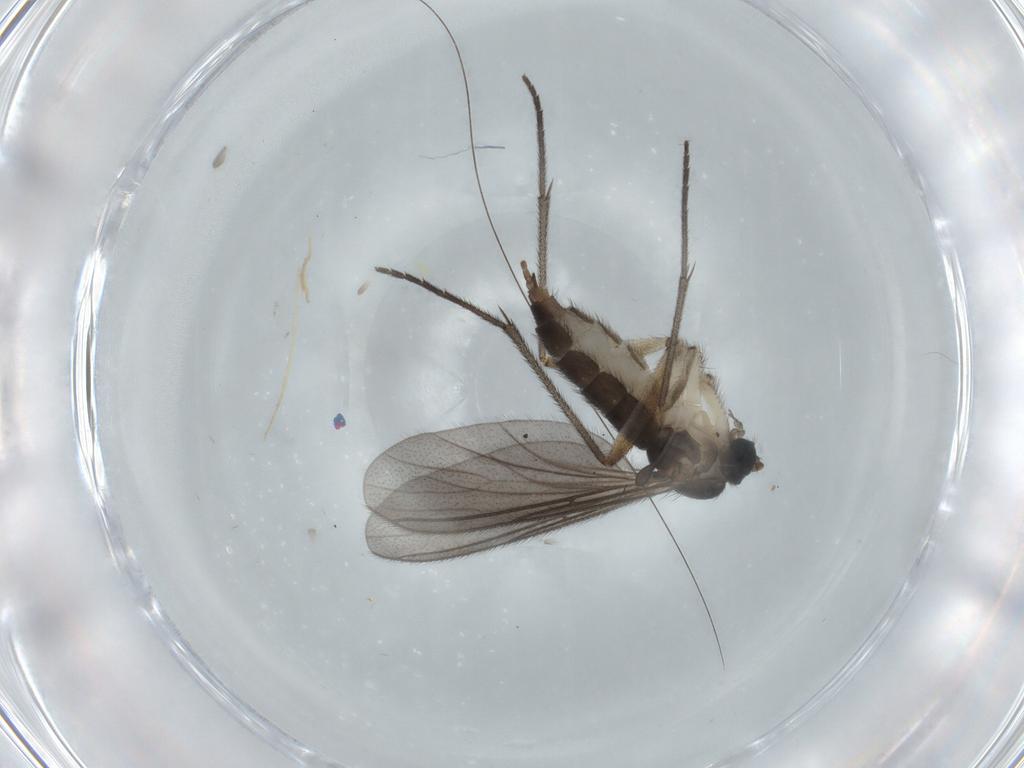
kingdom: Animalia
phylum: Arthropoda
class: Insecta
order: Diptera
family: Sciaridae
